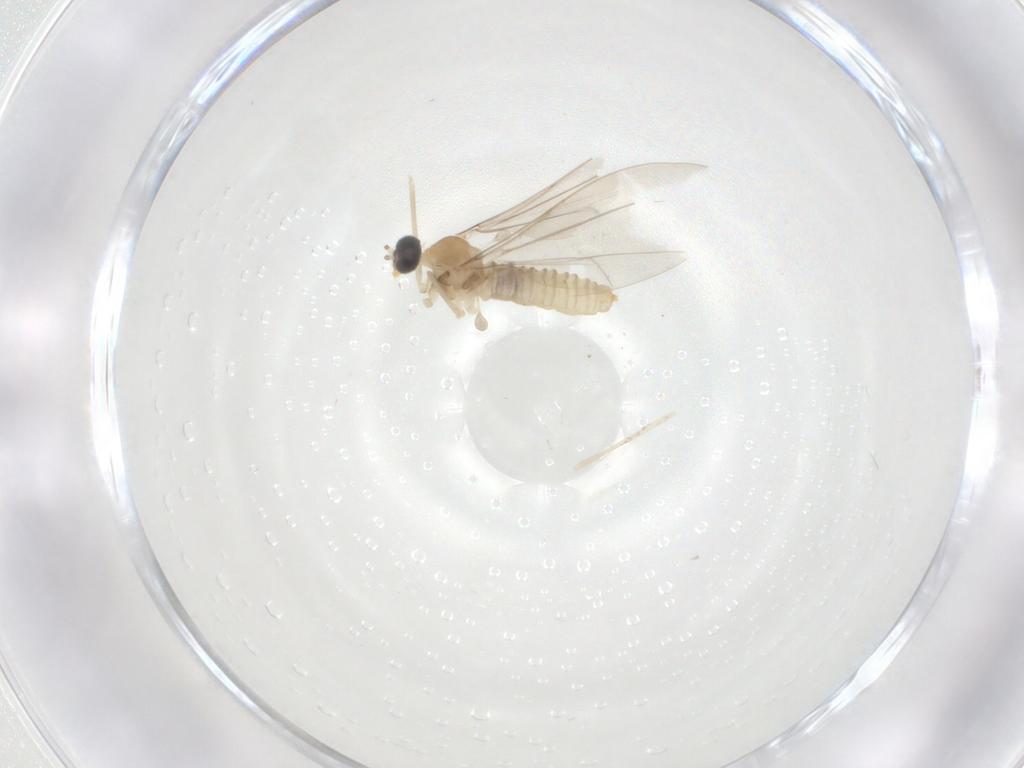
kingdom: Animalia
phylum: Arthropoda
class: Insecta
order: Diptera
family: Cecidomyiidae
